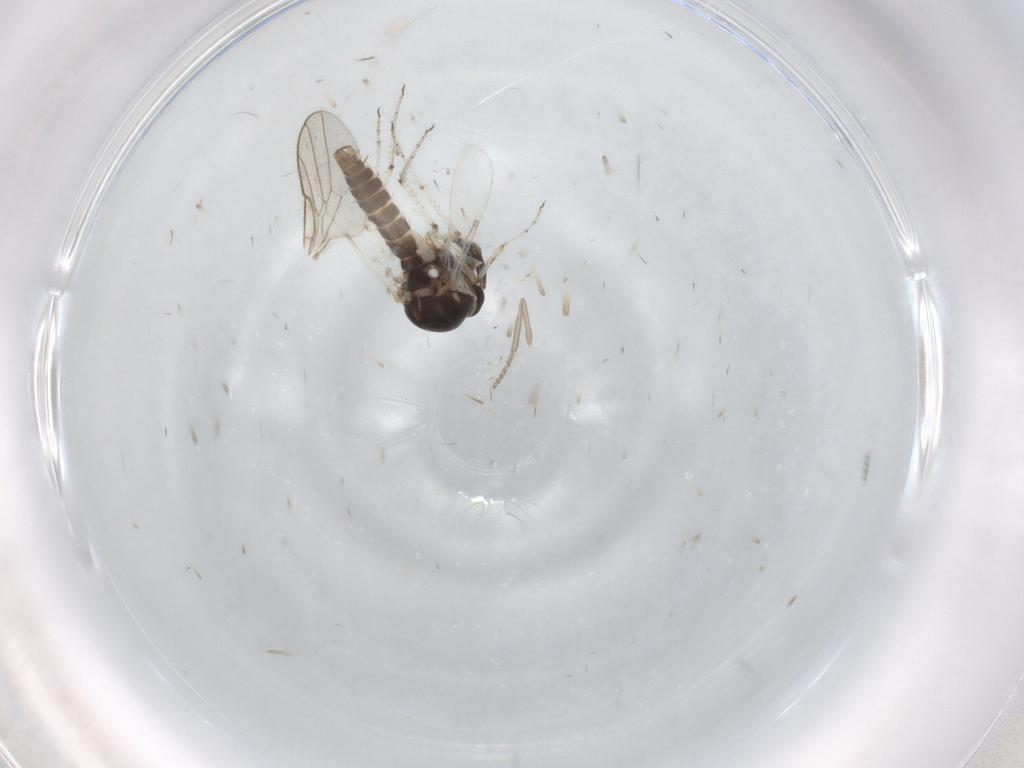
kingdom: Animalia
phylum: Arthropoda
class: Insecta
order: Diptera
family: Ceratopogonidae
